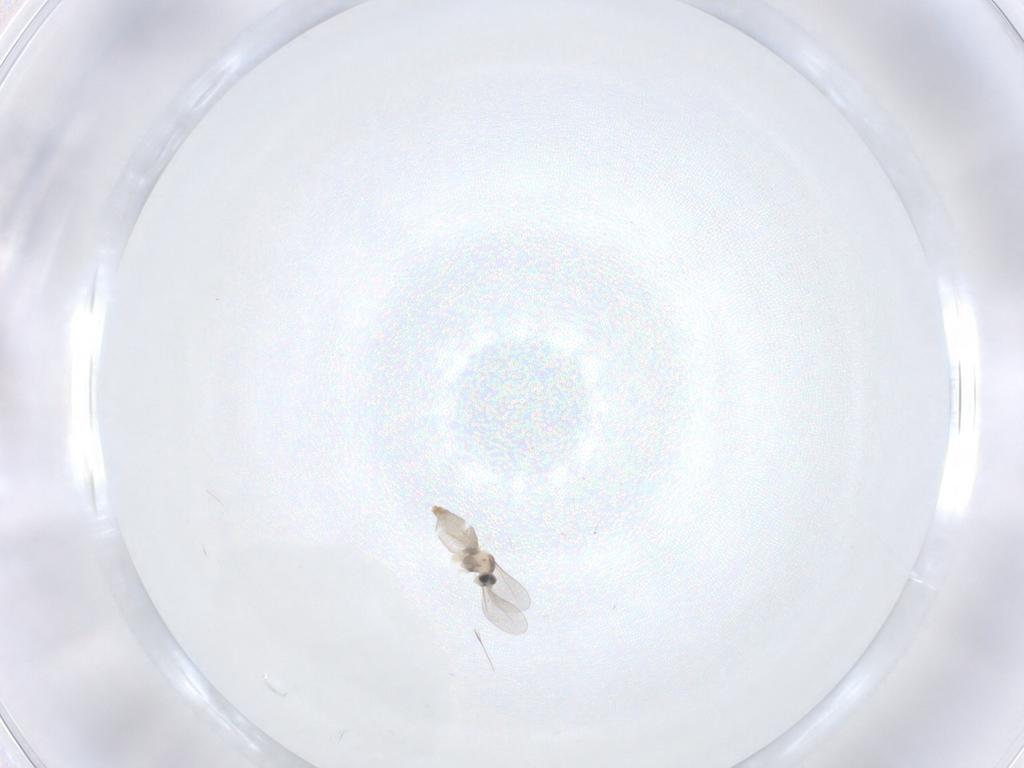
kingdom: Animalia
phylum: Arthropoda
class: Insecta
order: Diptera
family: Cecidomyiidae
